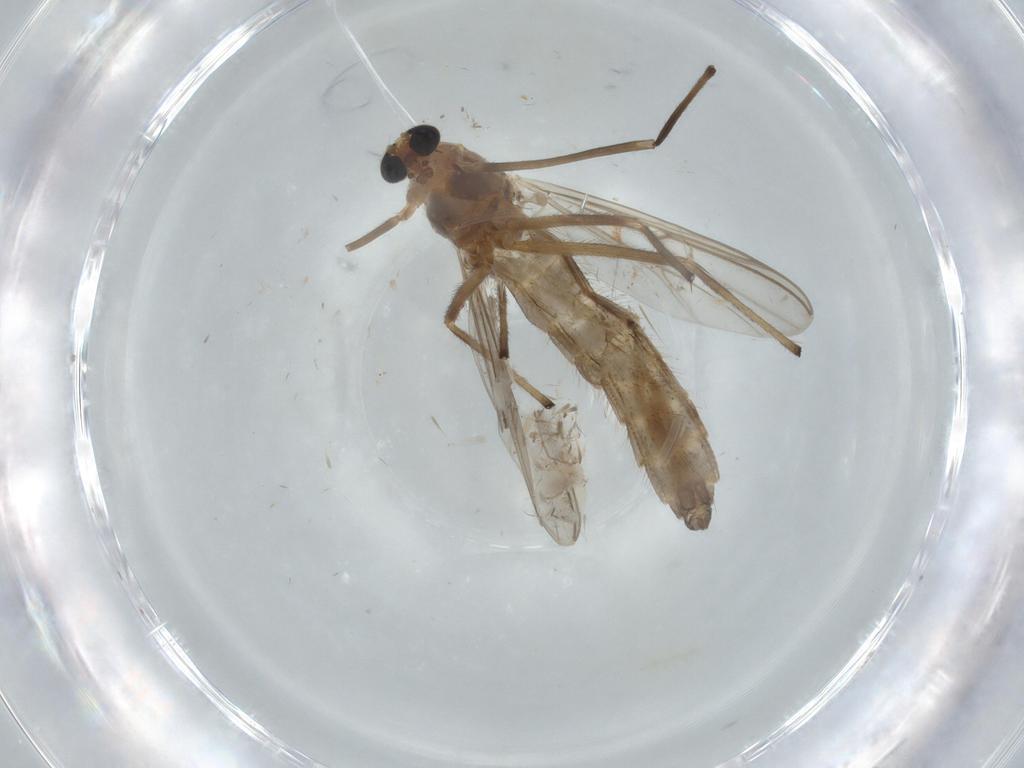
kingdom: Animalia
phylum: Arthropoda
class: Insecta
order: Diptera
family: Chironomidae
